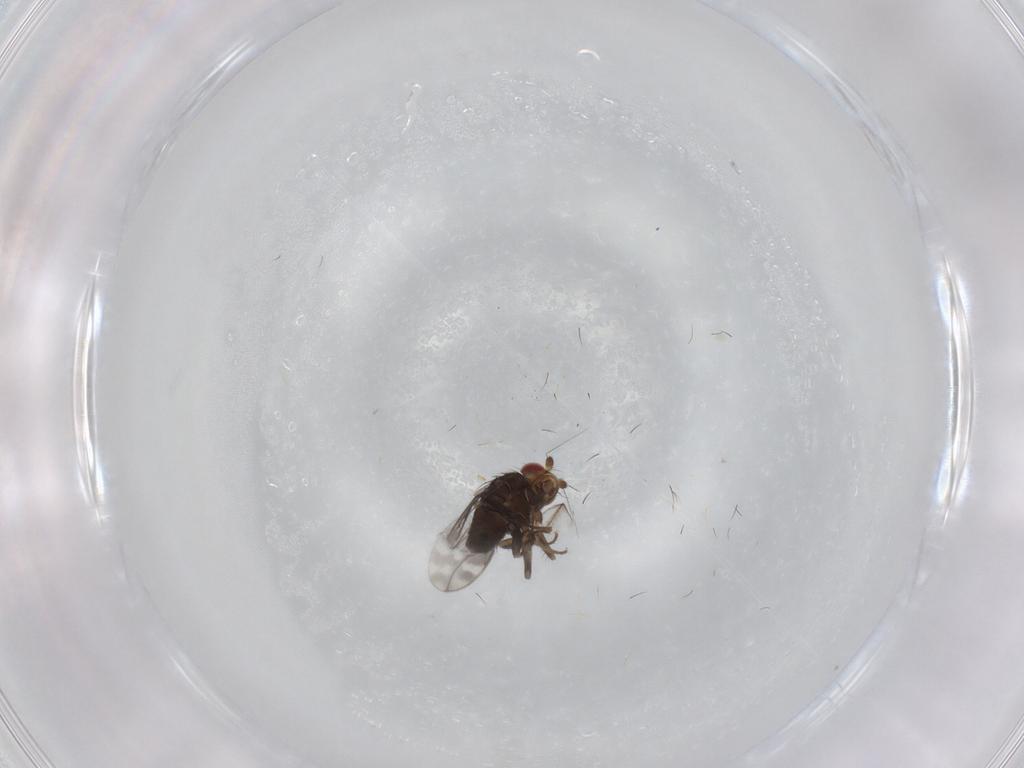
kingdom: Animalia
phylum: Arthropoda
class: Insecta
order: Diptera
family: Sphaeroceridae
